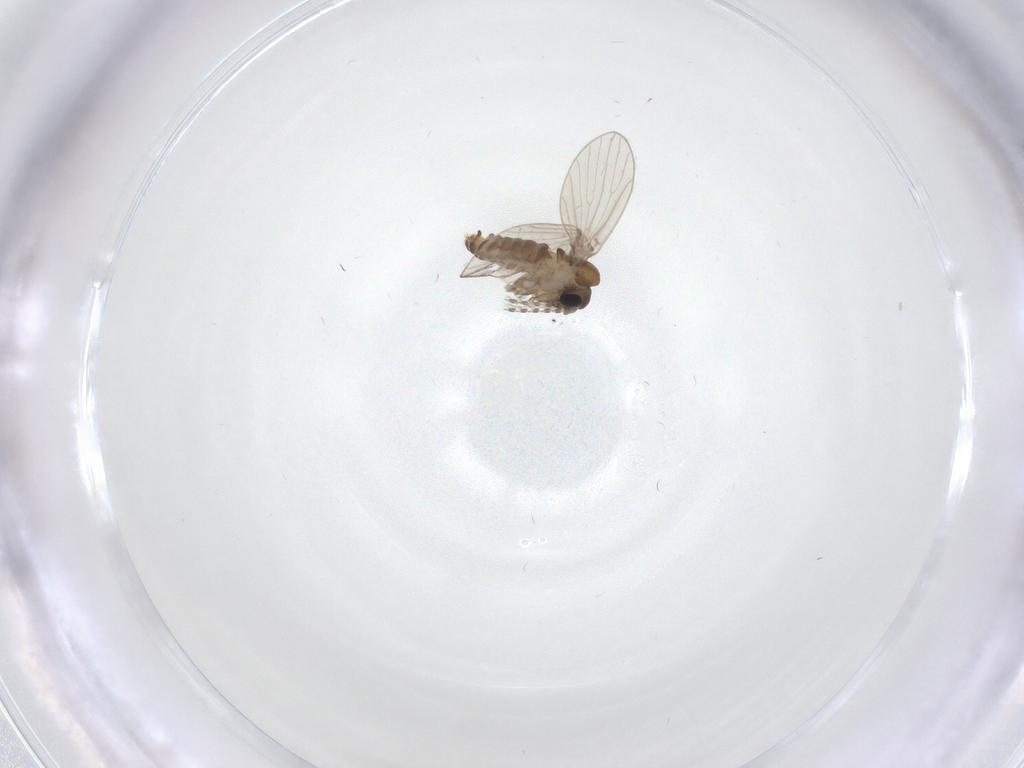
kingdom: Animalia
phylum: Arthropoda
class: Insecta
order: Diptera
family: Psychodidae
